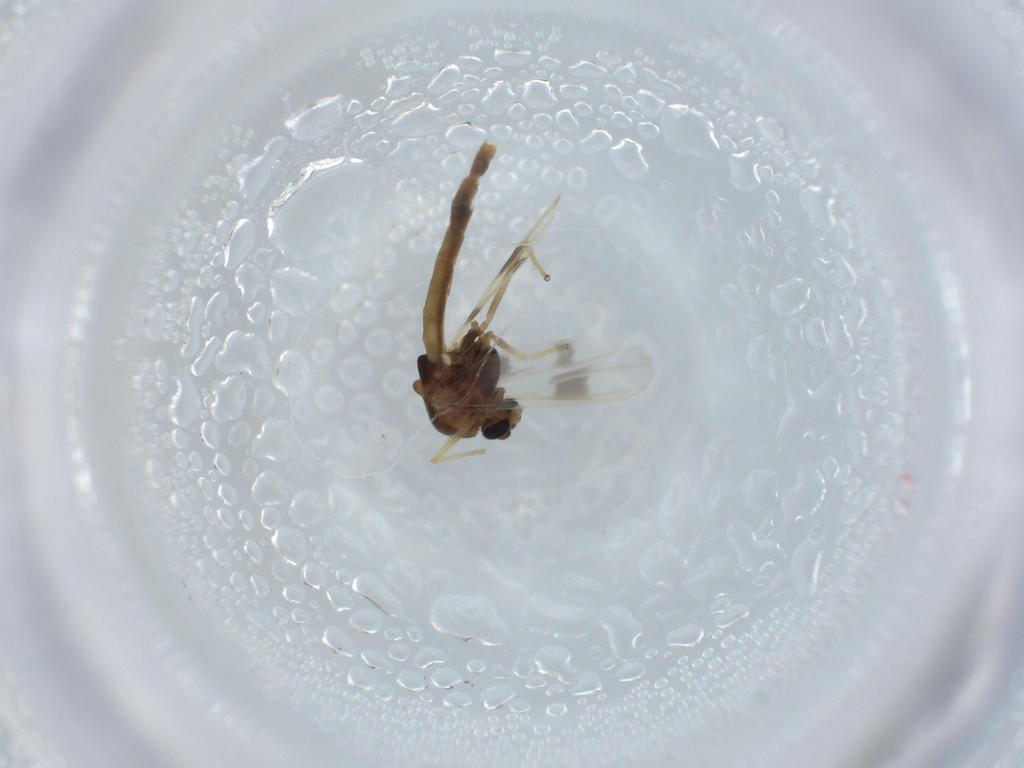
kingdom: Animalia
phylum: Arthropoda
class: Insecta
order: Diptera
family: Chironomidae
